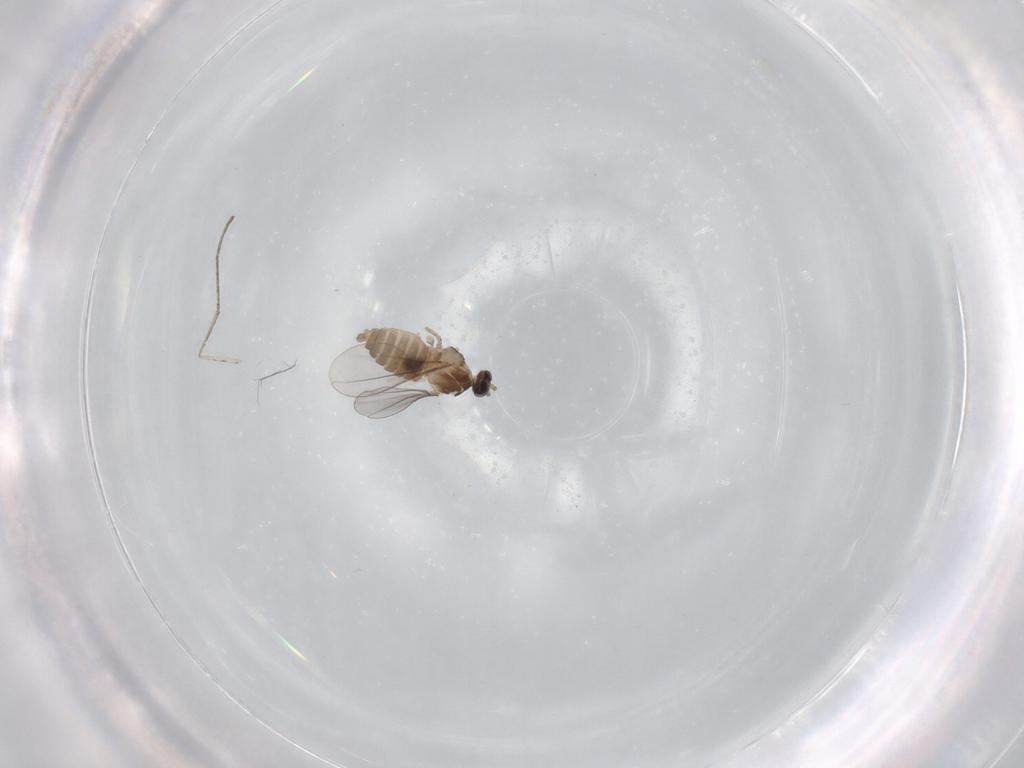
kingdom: Animalia
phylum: Arthropoda
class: Insecta
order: Diptera
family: Cecidomyiidae
